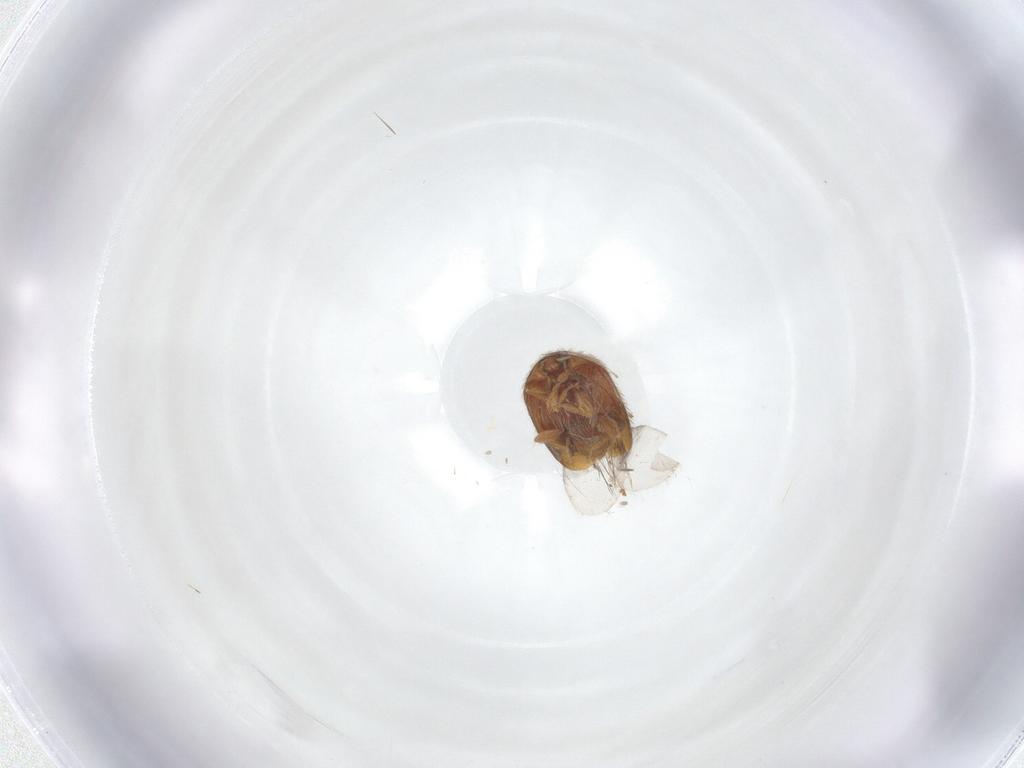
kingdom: Animalia
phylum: Arthropoda
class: Insecta
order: Coleoptera
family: Corylophidae
